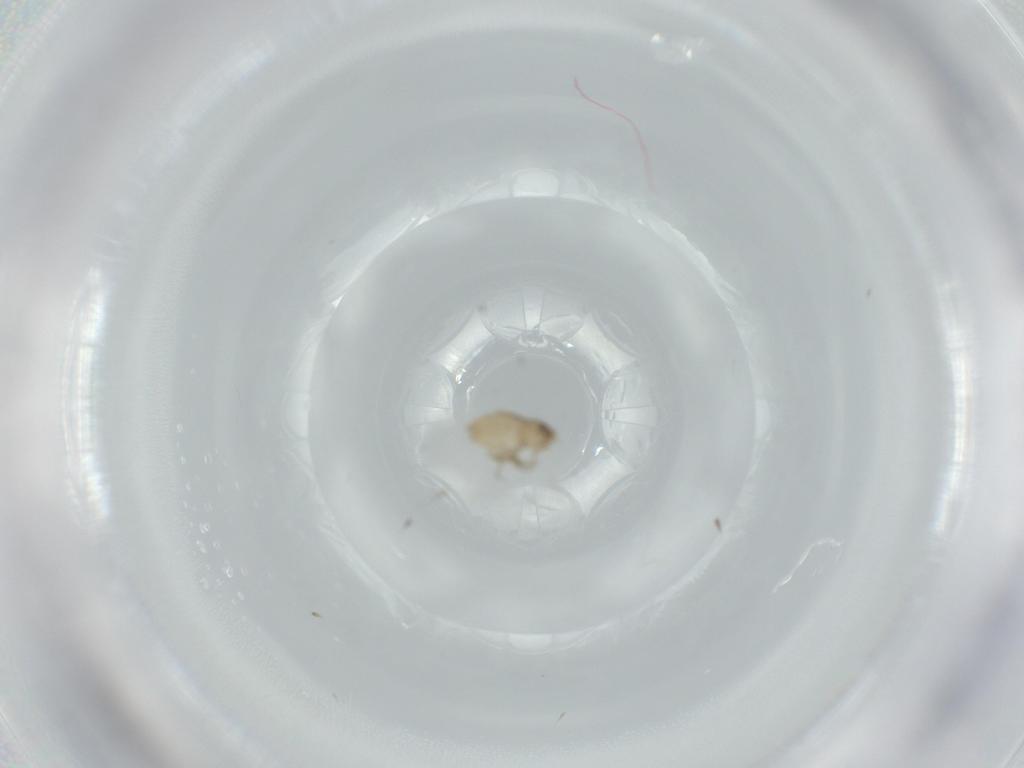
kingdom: Animalia
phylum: Arthropoda
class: Insecta
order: Diptera
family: Phoridae
